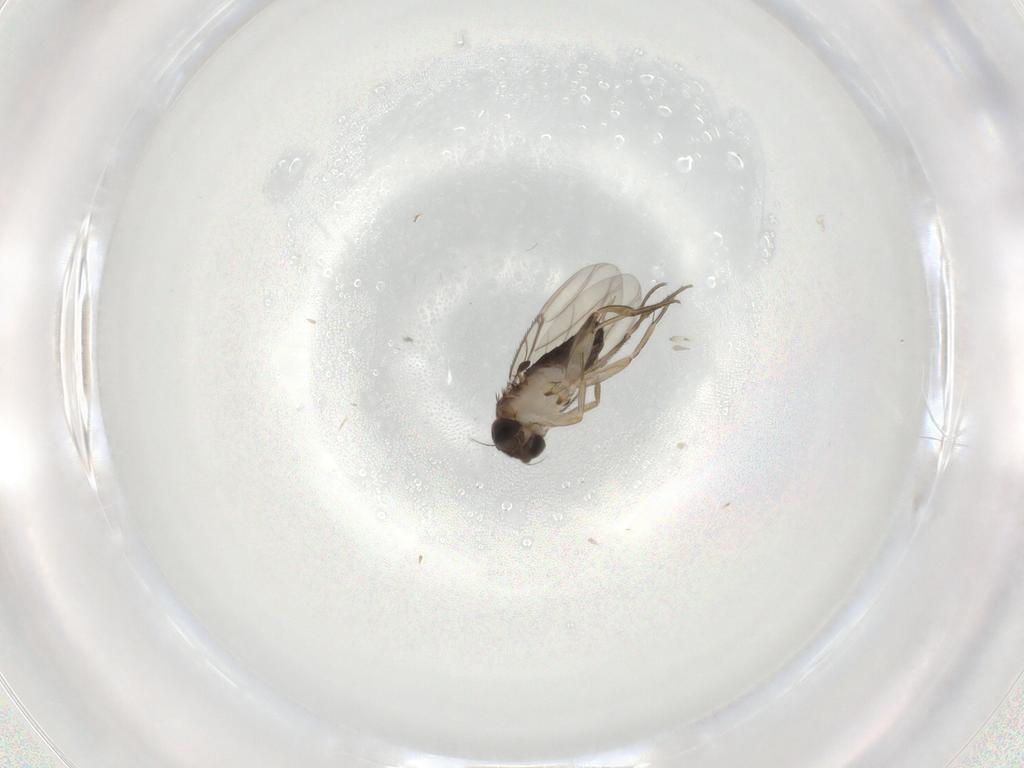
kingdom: Animalia
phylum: Arthropoda
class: Insecta
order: Diptera
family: Phoridae
